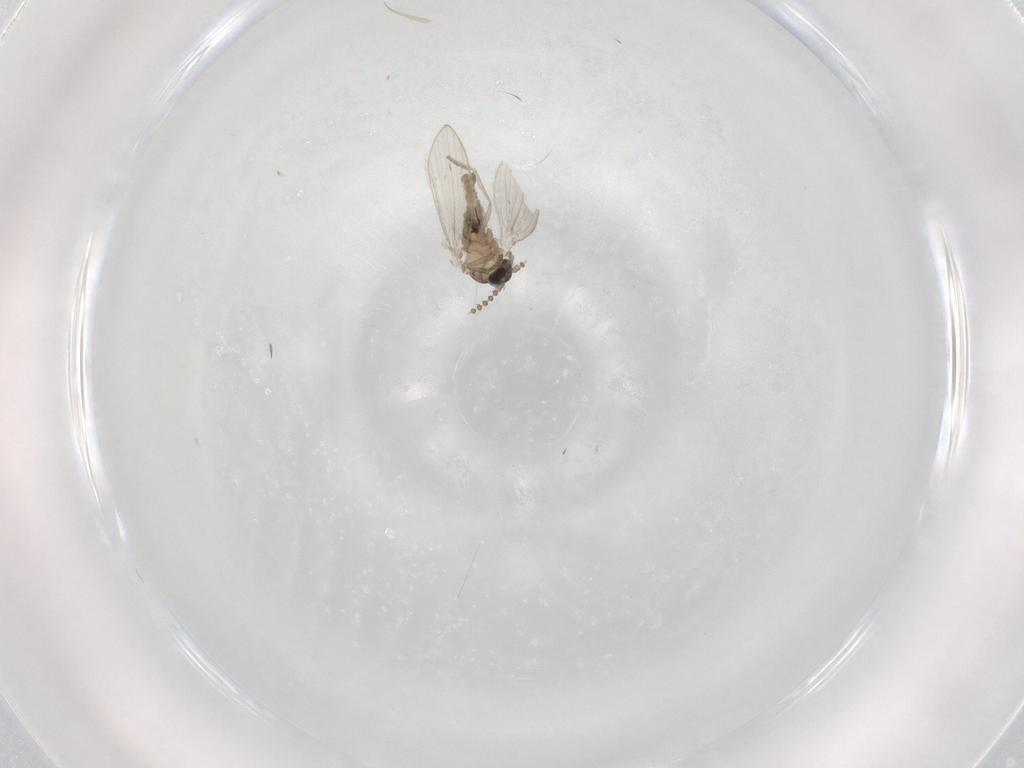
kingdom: Animalia
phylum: Arthropoda
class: Insecta
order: Diptera
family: Psychodidae
